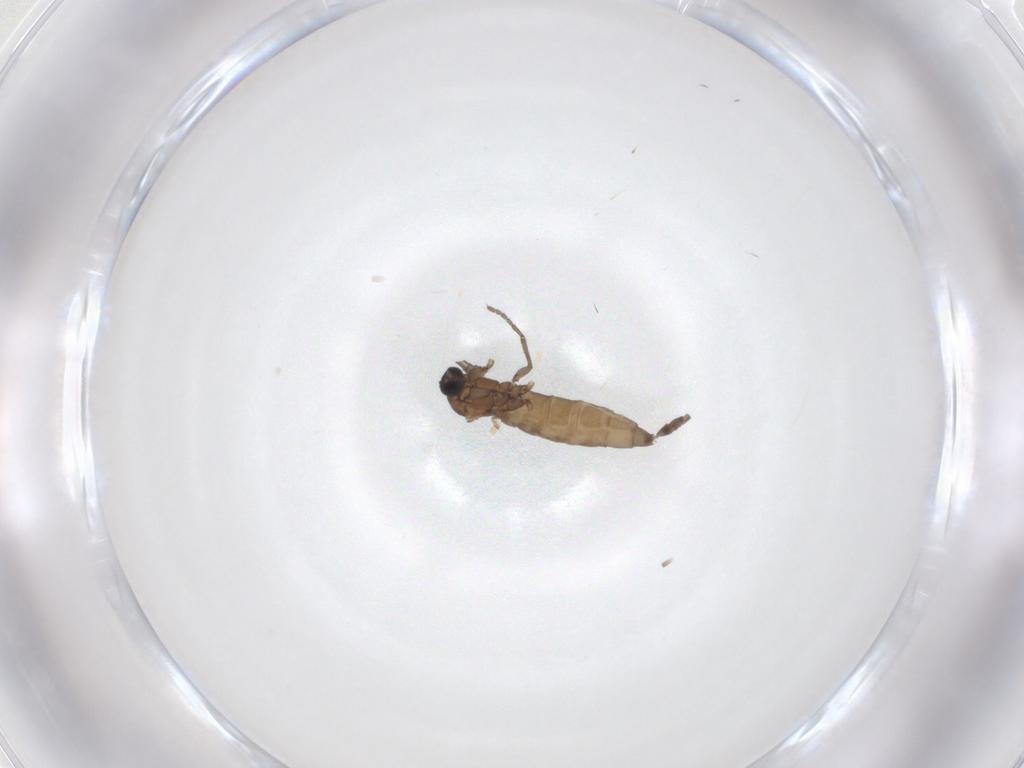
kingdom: Animalia
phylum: Arthropoda
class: Insecta
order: Diptera
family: Sciaridae
